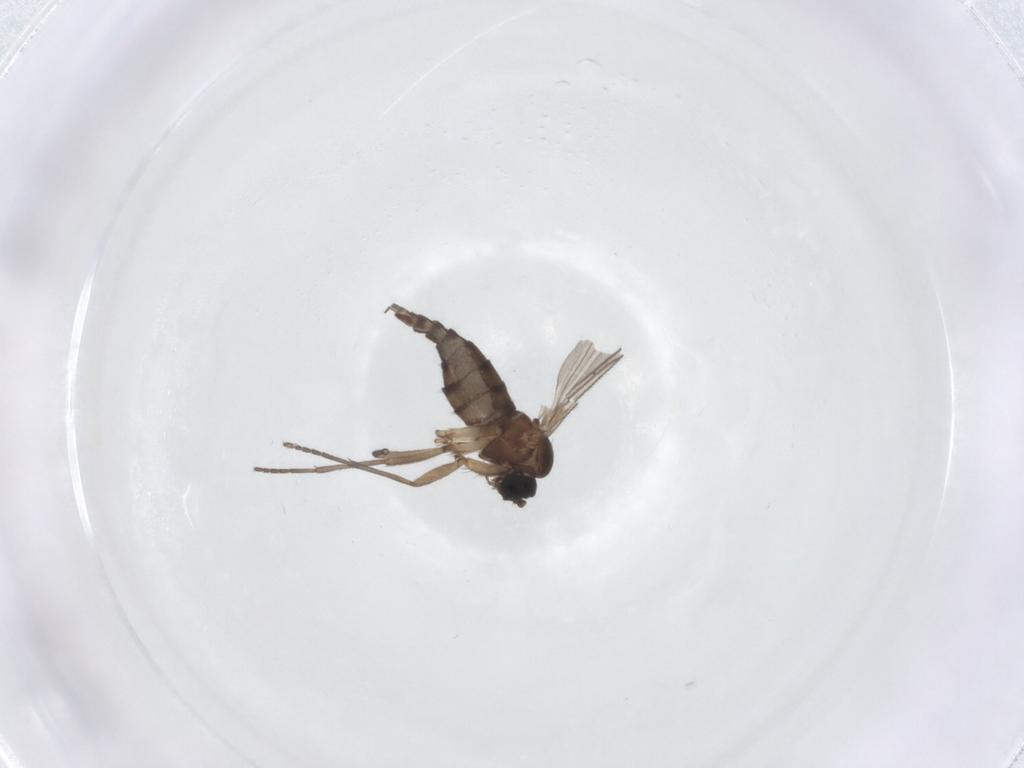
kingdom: Animalia
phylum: Arthropoda
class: Insecta
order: Diptera
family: Sciaridae
